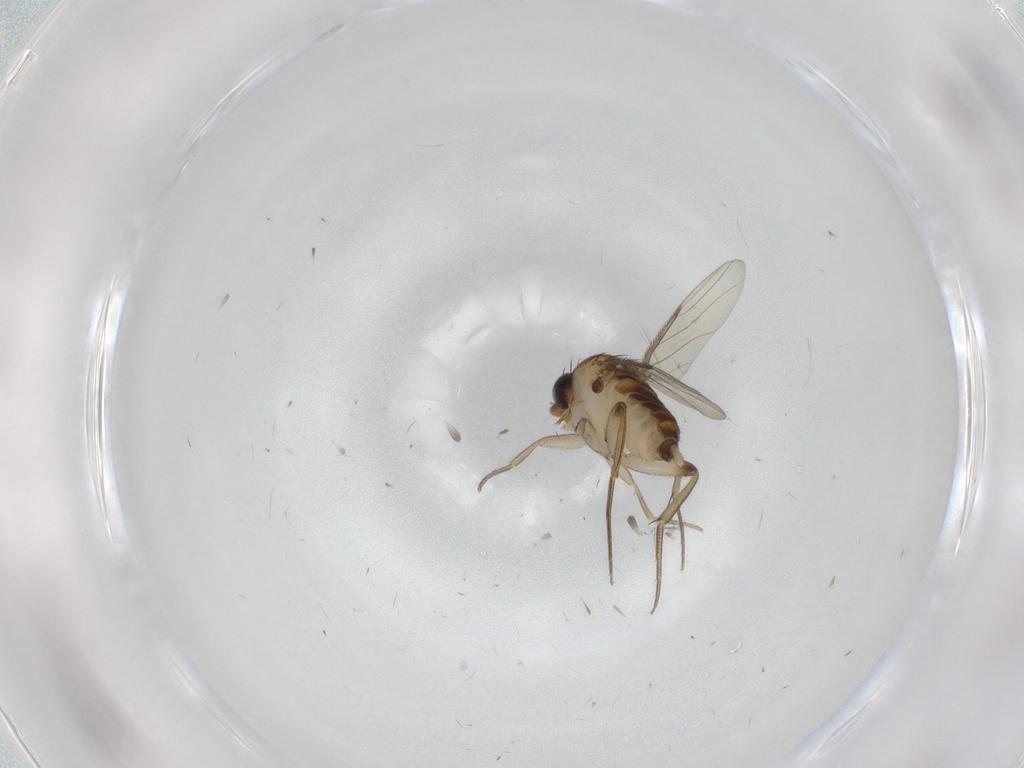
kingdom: Animalia
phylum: Arthropoda
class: Insecta
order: Diptera
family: Phoridae
